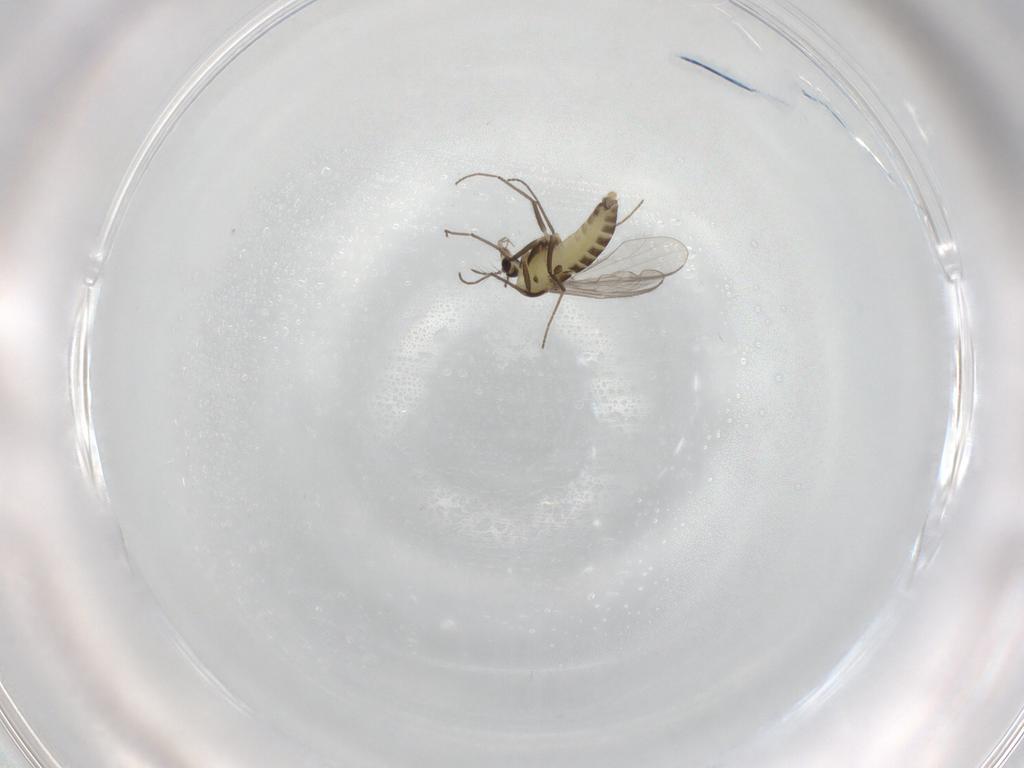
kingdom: Animalia
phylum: Arthropoda
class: Insecta
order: Diptera
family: Chironomidae
